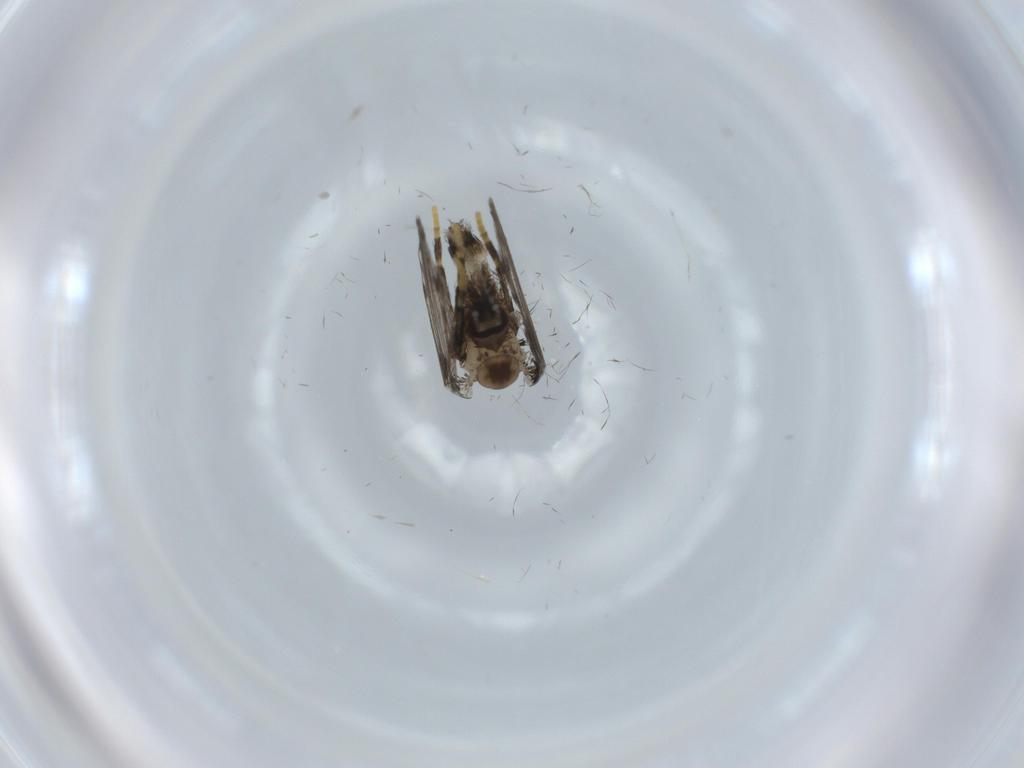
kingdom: Animalia
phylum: Arthropoda
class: Insecta
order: Diptera
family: Psychodidae
